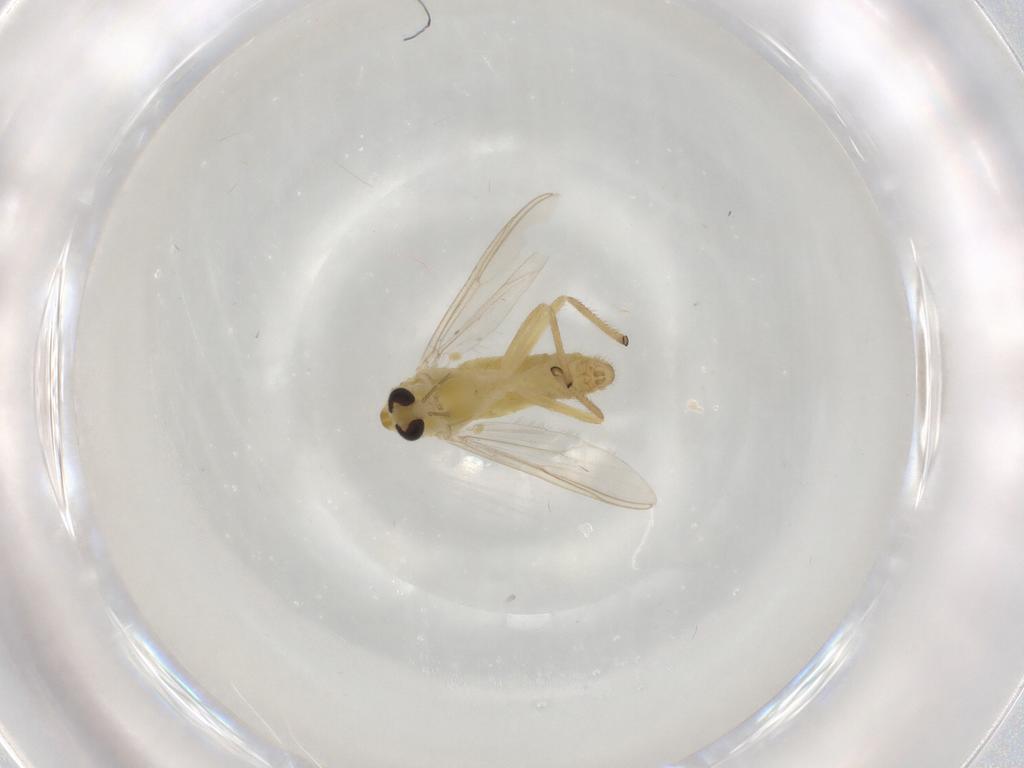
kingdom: Animalia
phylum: Arthropoda
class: Insecta
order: Diptera
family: Chironomidae
